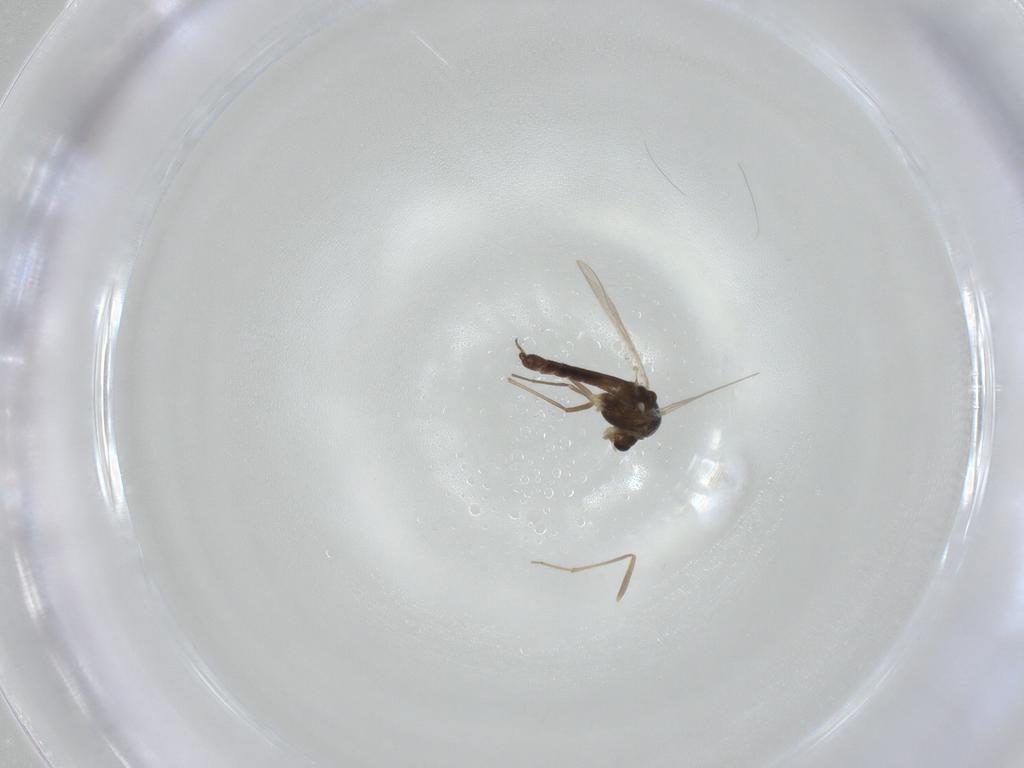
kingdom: Animalia
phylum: Arthropoda
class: Insecta
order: Diptera
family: Chironomidae
